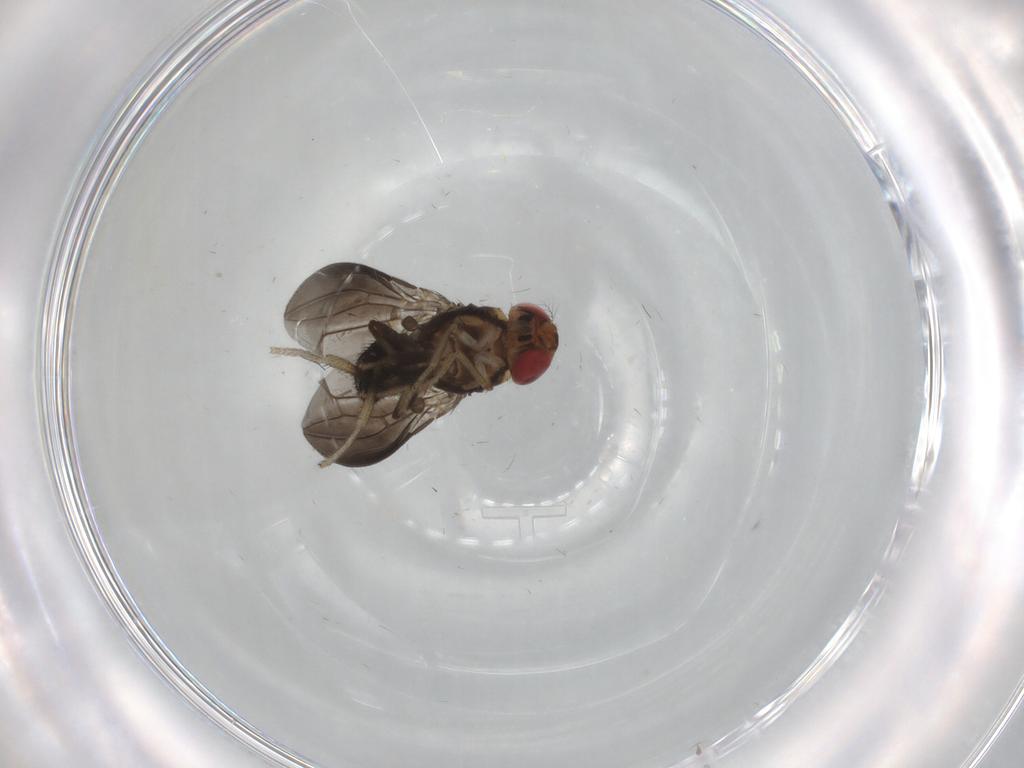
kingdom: Animalia
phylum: Arthropoda
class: Insecta
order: Diptera
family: Drosophilidae
